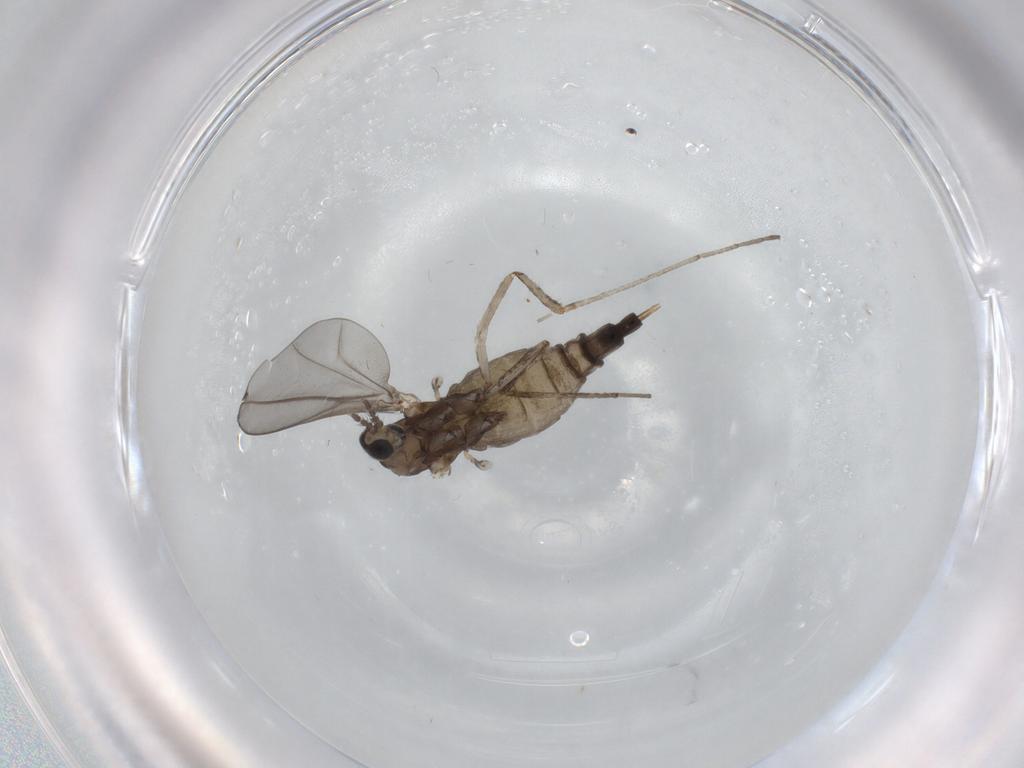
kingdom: Animalia
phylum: Arthropoda
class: Insecta
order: Diptera
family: Cecidomyiidae
